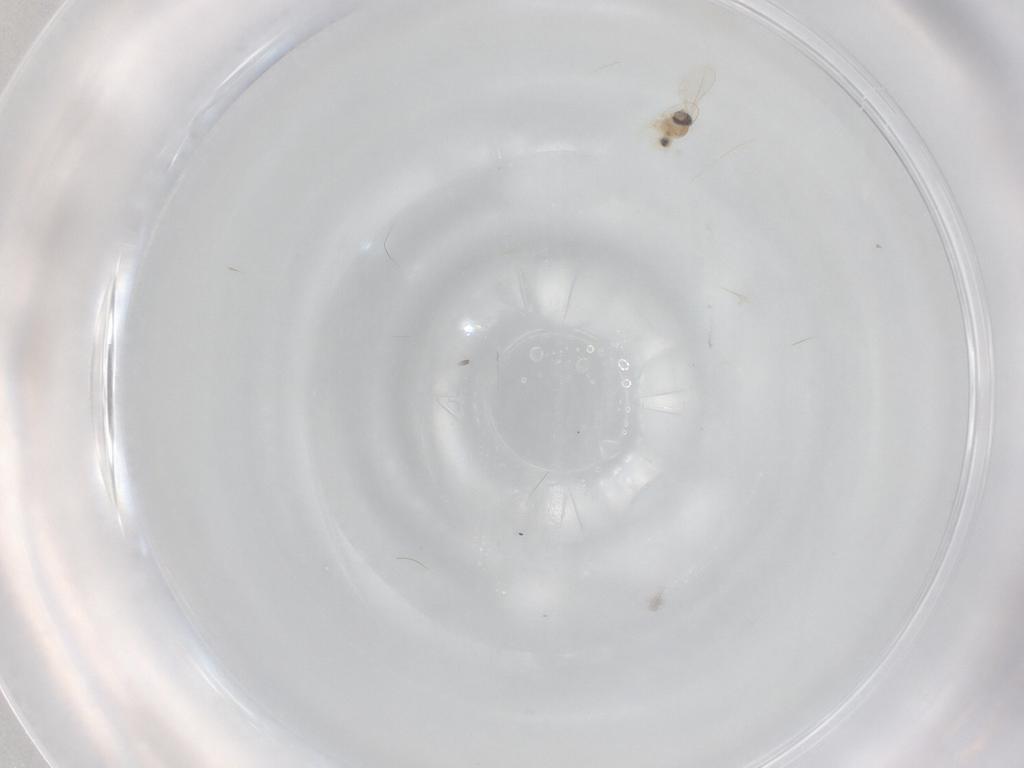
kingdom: Animalia
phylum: Arthropoda
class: Insecta
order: Diptera
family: Cecidomyiidae
